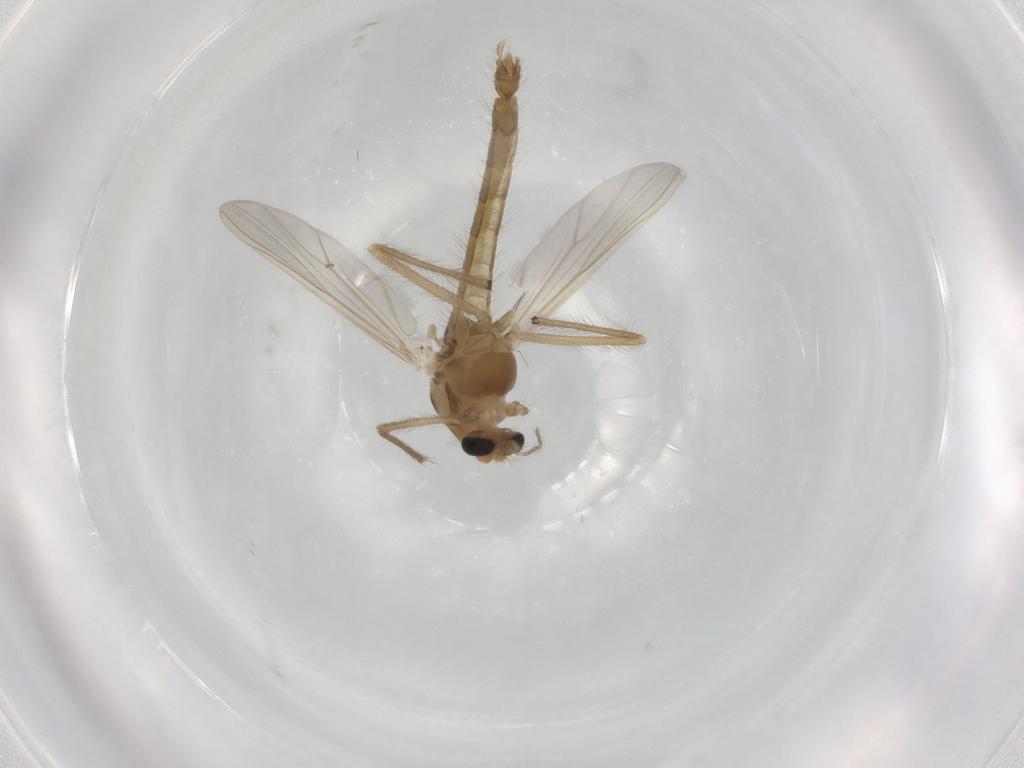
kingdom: Animalia
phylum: Arthropoda
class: Insecta
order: Diptera
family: Chironomidae
